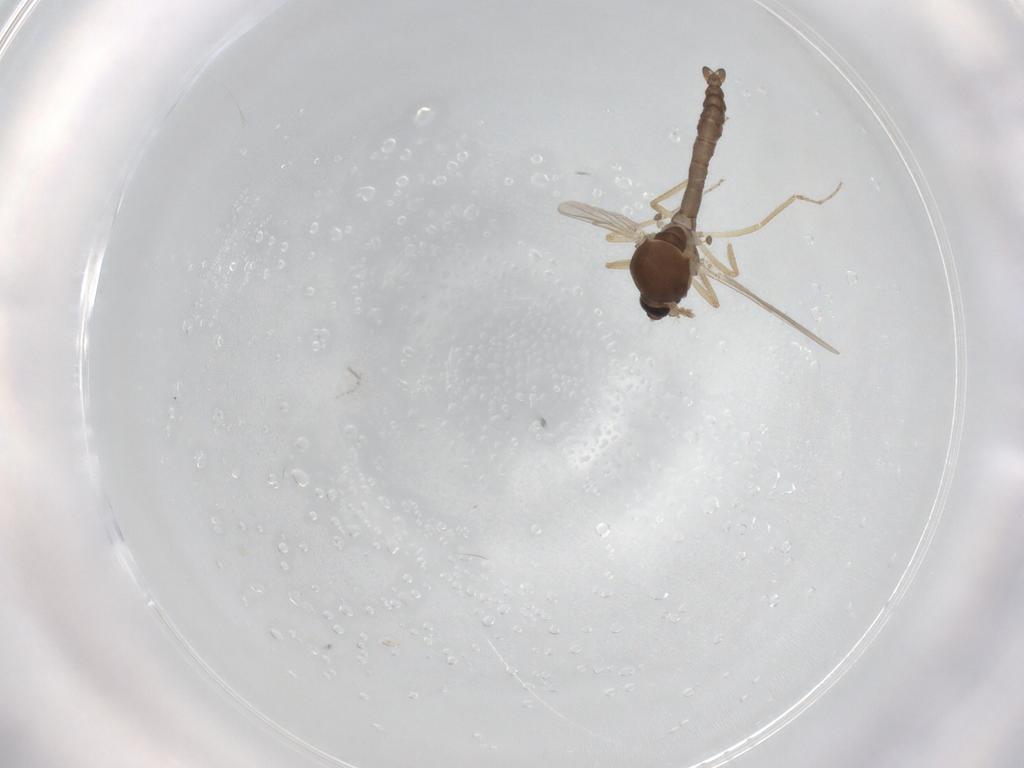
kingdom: Animalia
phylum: Arthropoda
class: Insecta
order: Diptera
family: Ceratopogonidae
